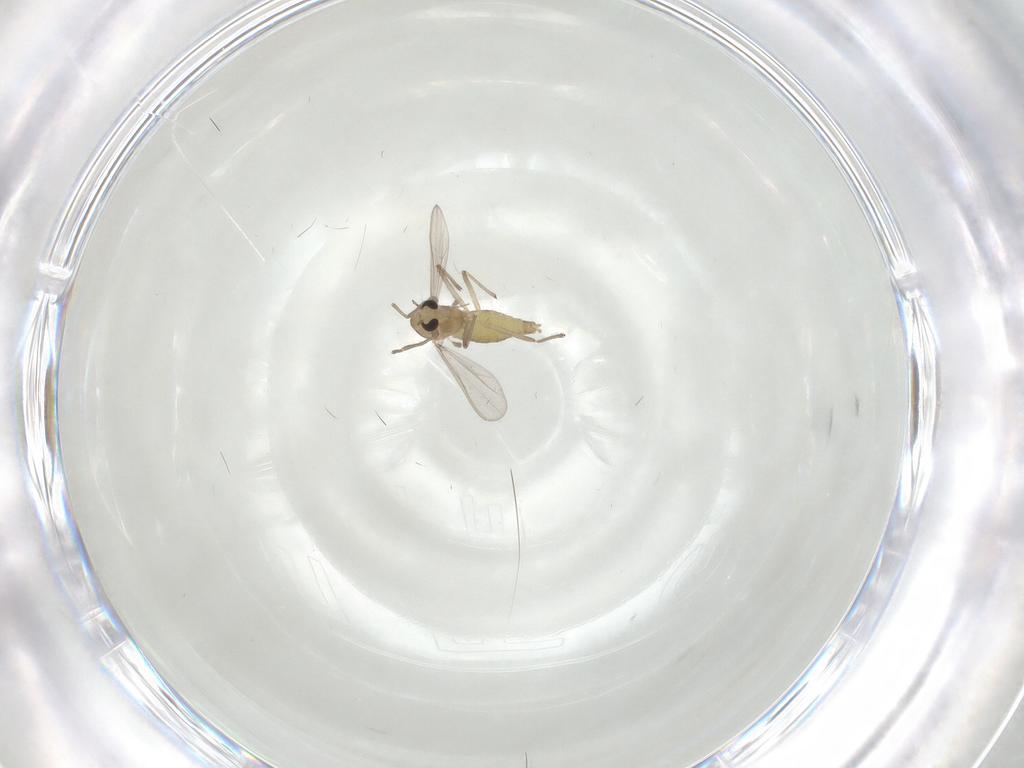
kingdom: Animalia
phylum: Arthropoda
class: Insecta
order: Diptera
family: Chironomidae
